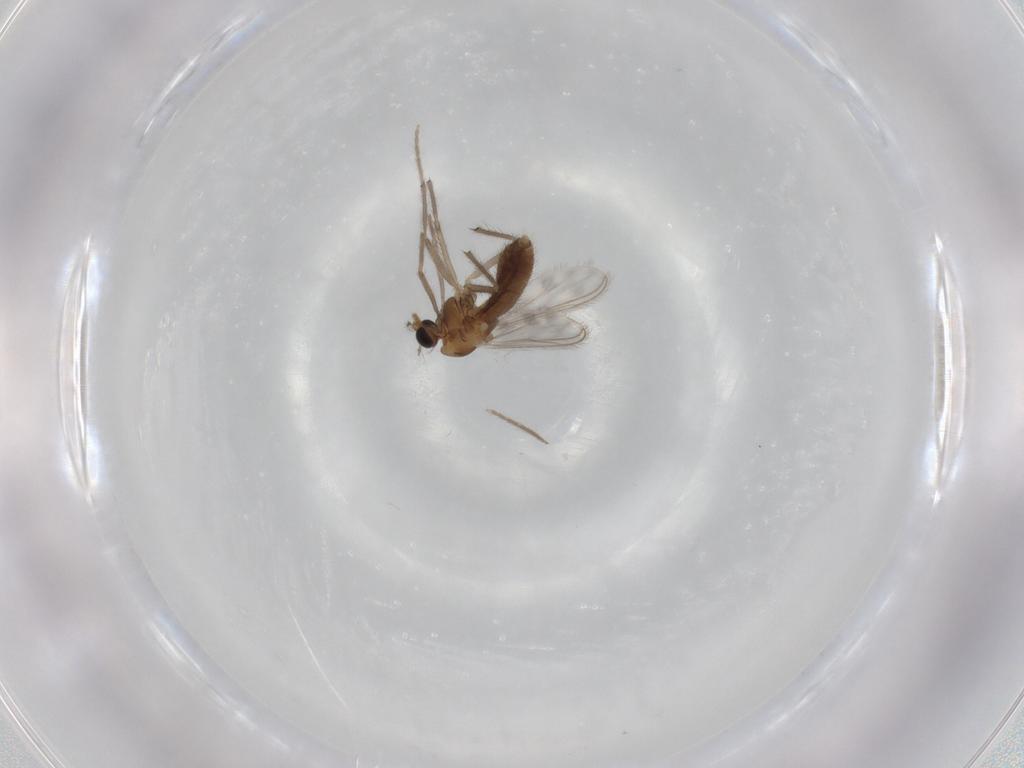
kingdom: Animalia
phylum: Arthropoda
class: Insecta
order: Diptera
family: Chironomidae
